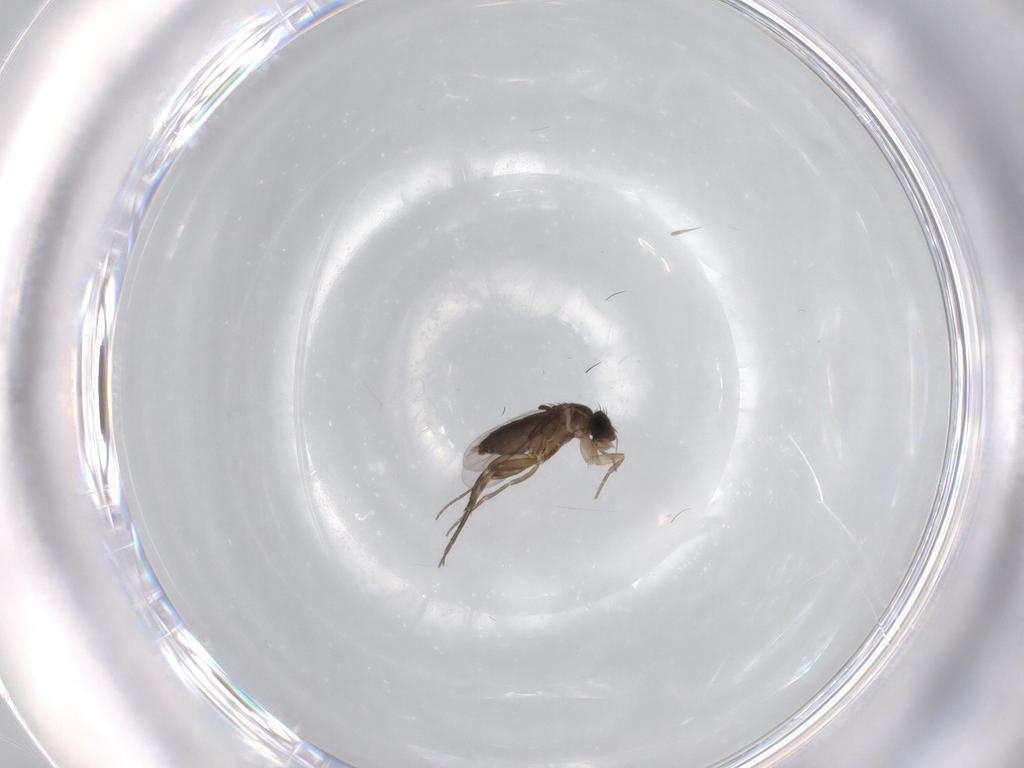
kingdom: Animalia
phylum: Arthropoda
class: Insecta
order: Diptera
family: Phoridae
